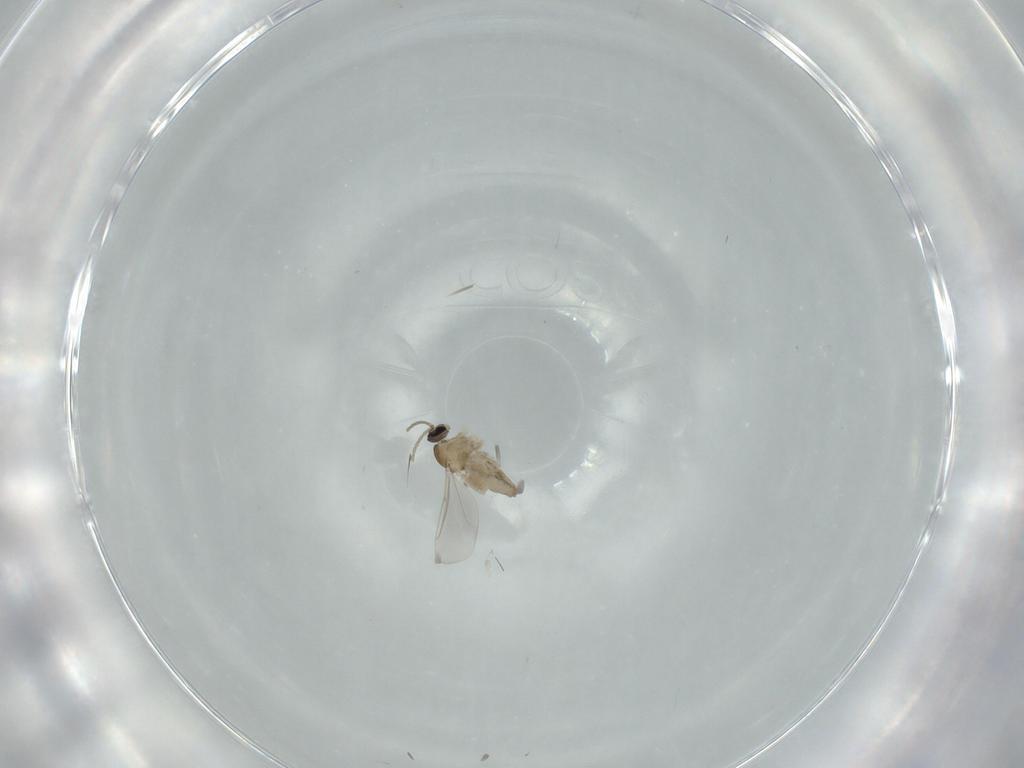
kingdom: Animalia
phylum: Arthropoda
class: Insecta
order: Diptera
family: Cecidomyiidae
